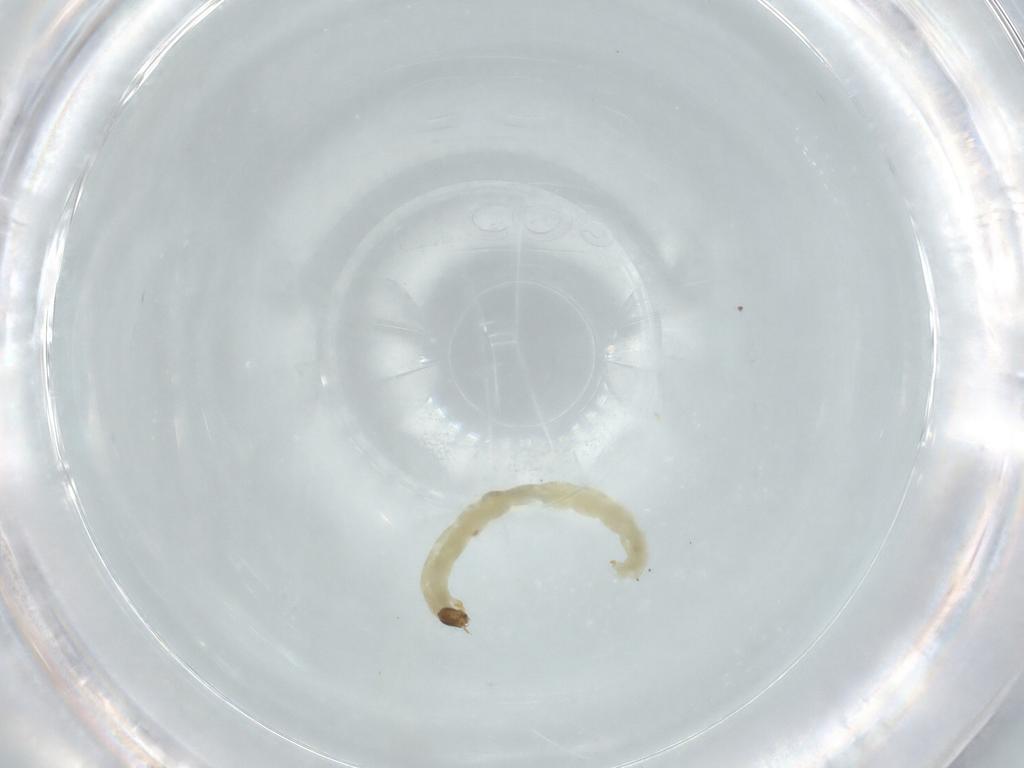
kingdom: Animalia
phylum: Arthropoda
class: Insecta
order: Diptera
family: Chironomidae
